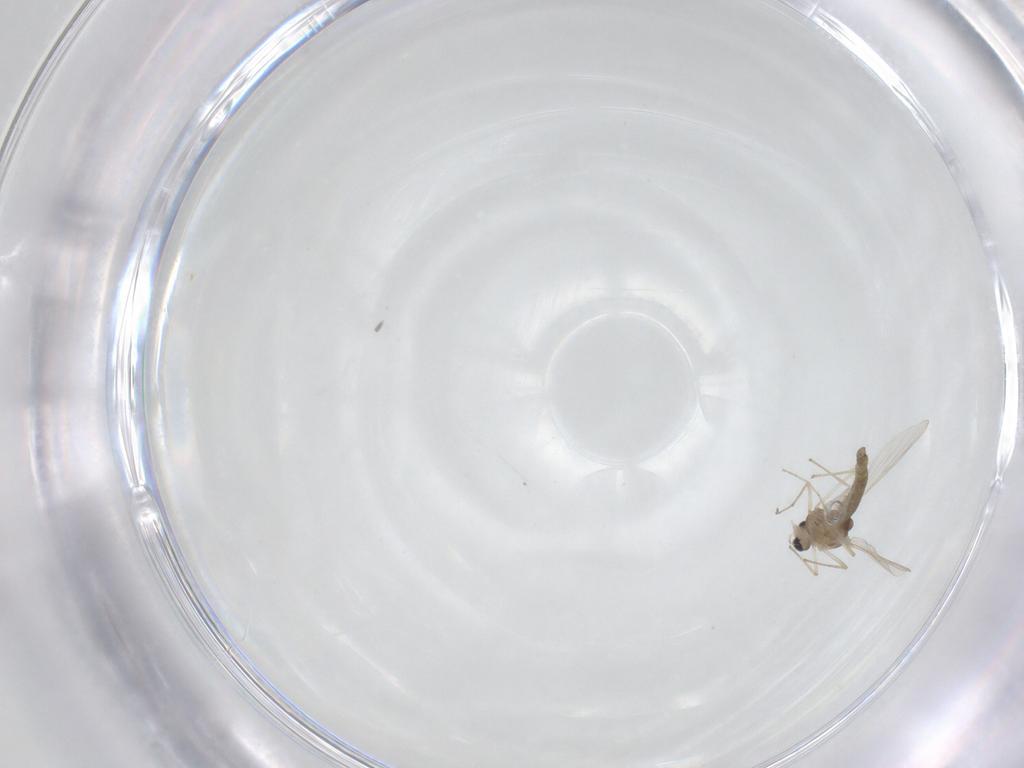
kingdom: Animalia
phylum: Arthropoda
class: Insecta
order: Diptera
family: Chironomidae
